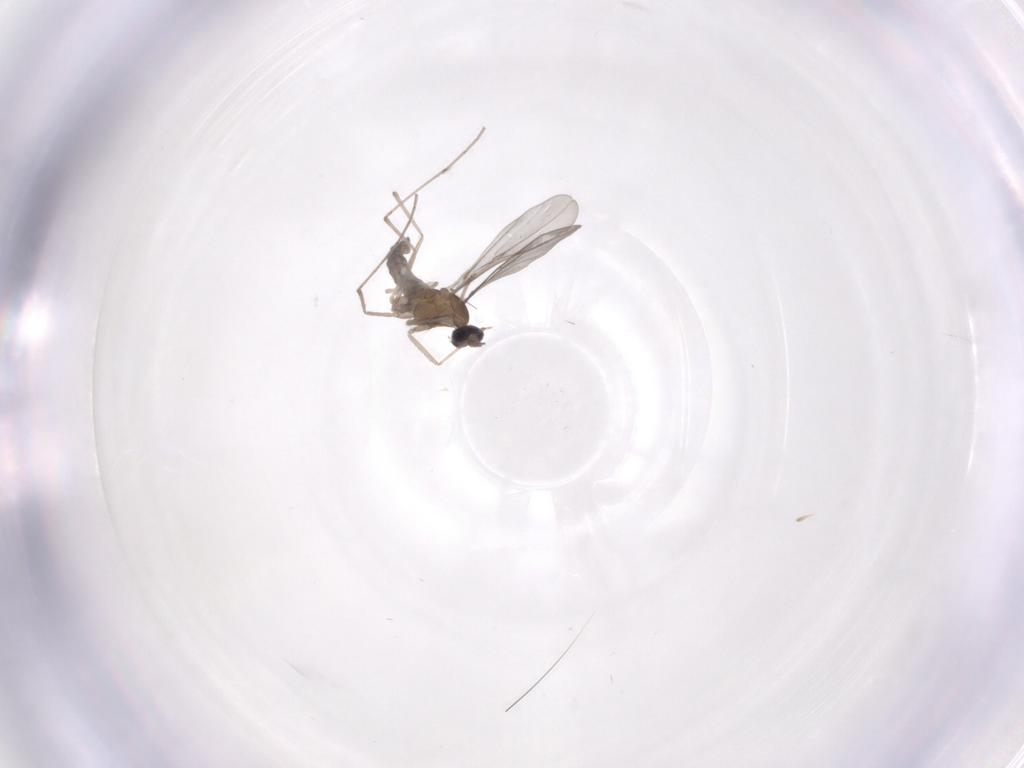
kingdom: Animalia
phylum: Arthropoda
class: Insecta
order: Diptera
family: Cecidomyiidae
